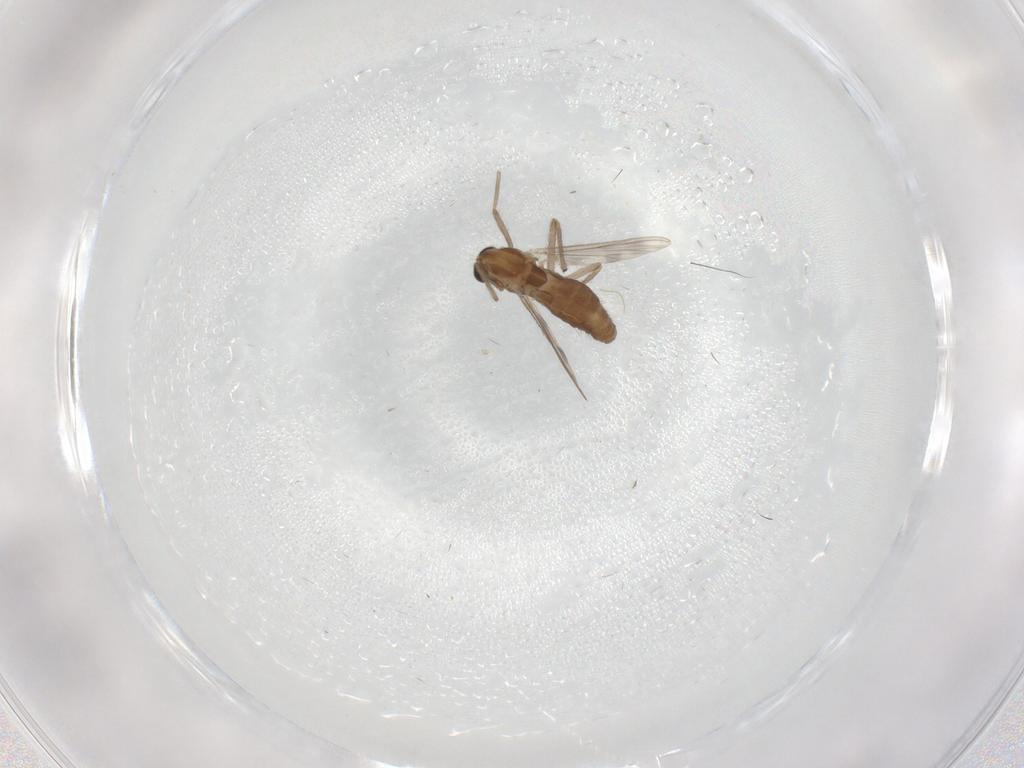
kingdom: Animalia
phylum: Arthropoda
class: Insecta
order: Diptera
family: Chironomidae
